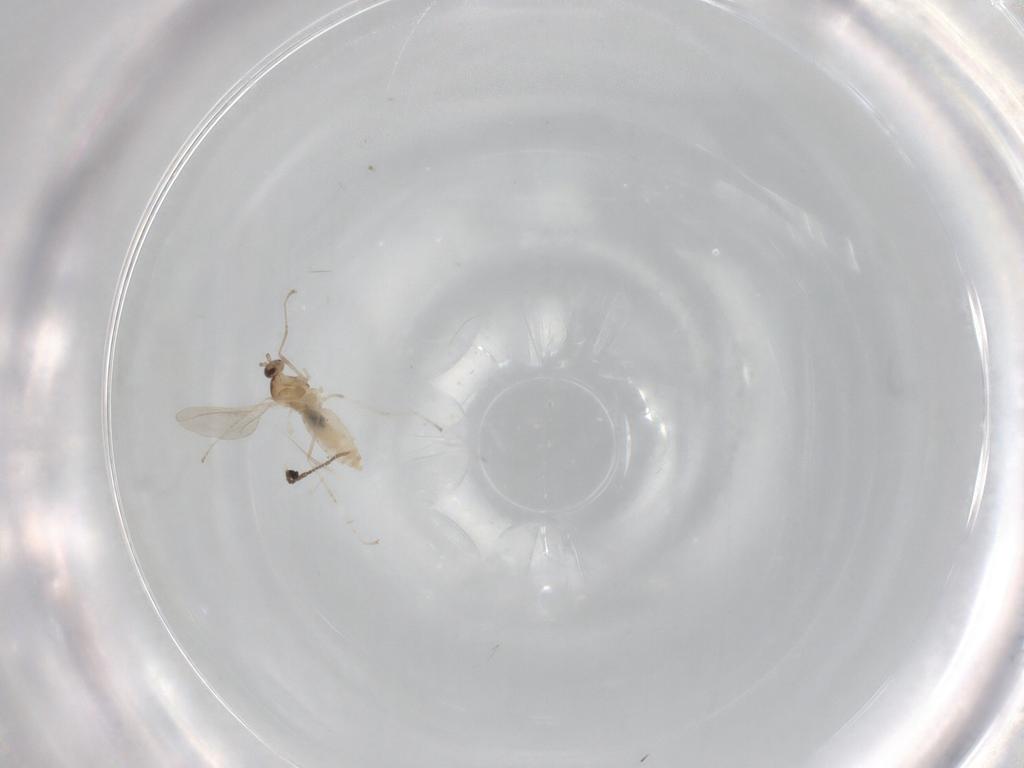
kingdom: Animalia
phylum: Arthropoda
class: Insecta
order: Diptera
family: Cecidomyiidae
